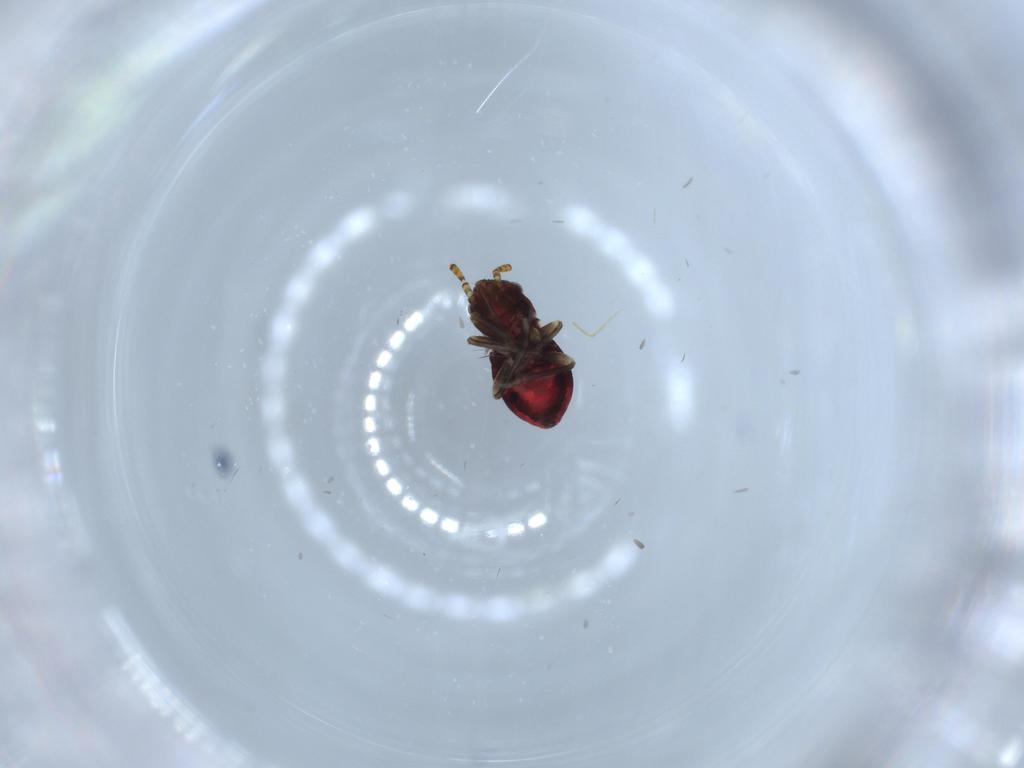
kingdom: Animalia
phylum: Arthropoda
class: Insecta
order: Hemiptera
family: Rhyparochromidae
